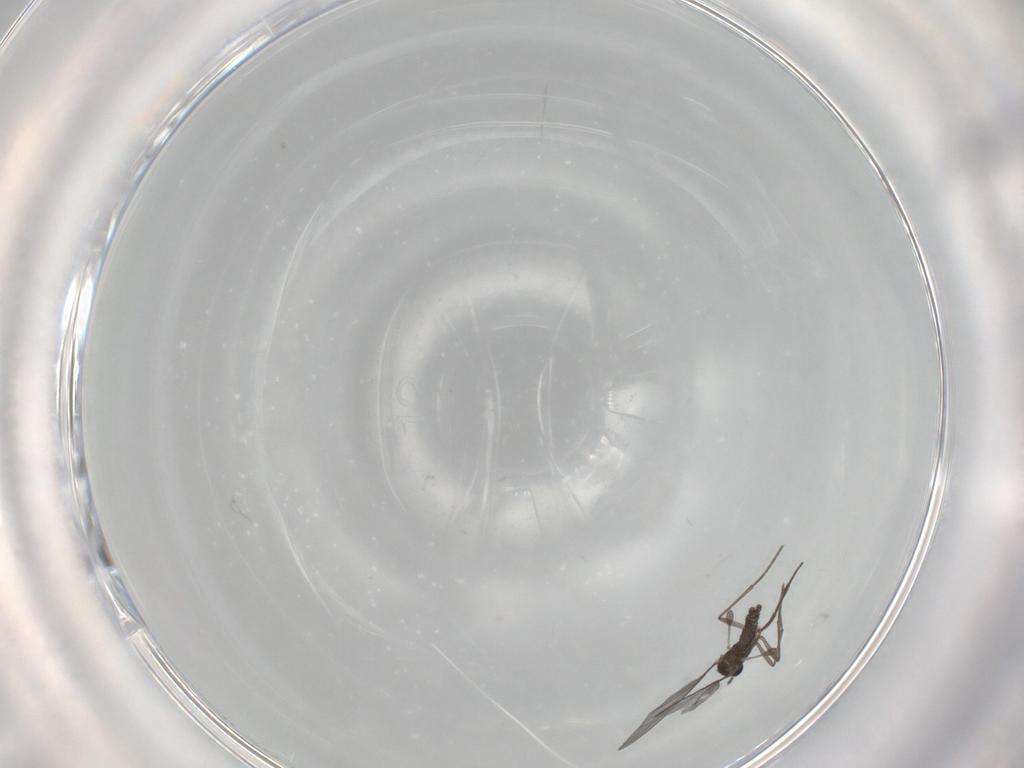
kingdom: Animalia
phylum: Arthropoda
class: Insecta
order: Diptera
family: Sciaridae
